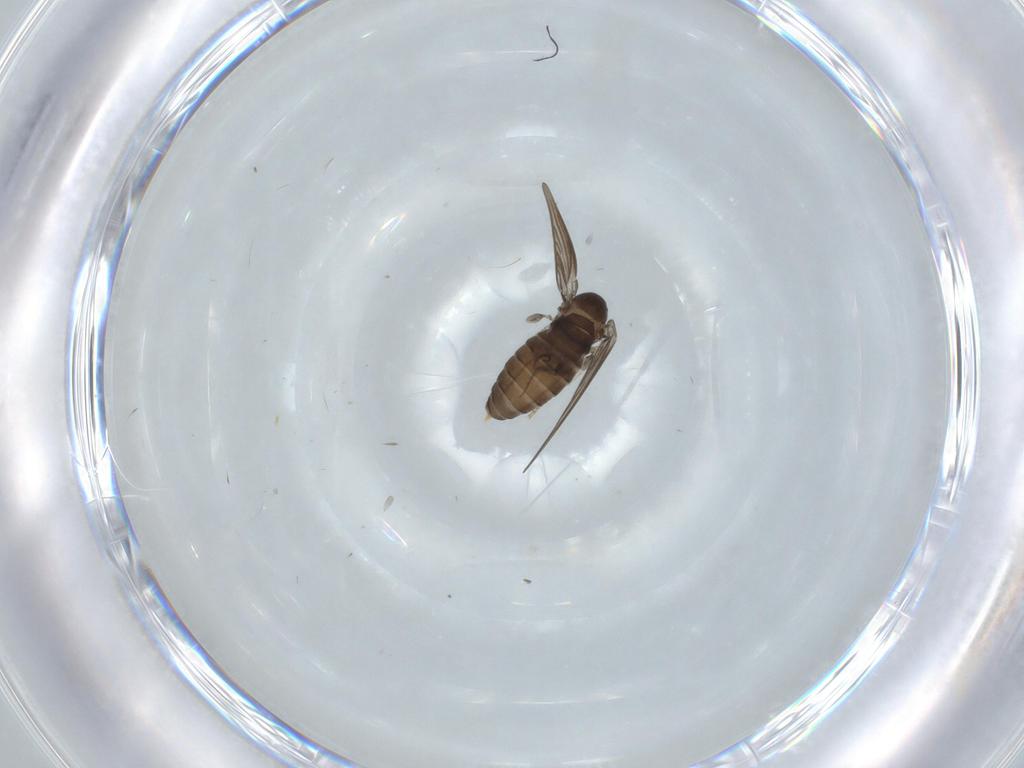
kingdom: Animalia
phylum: Arthropoda
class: Insecta
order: Diptera
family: Psychodidae
